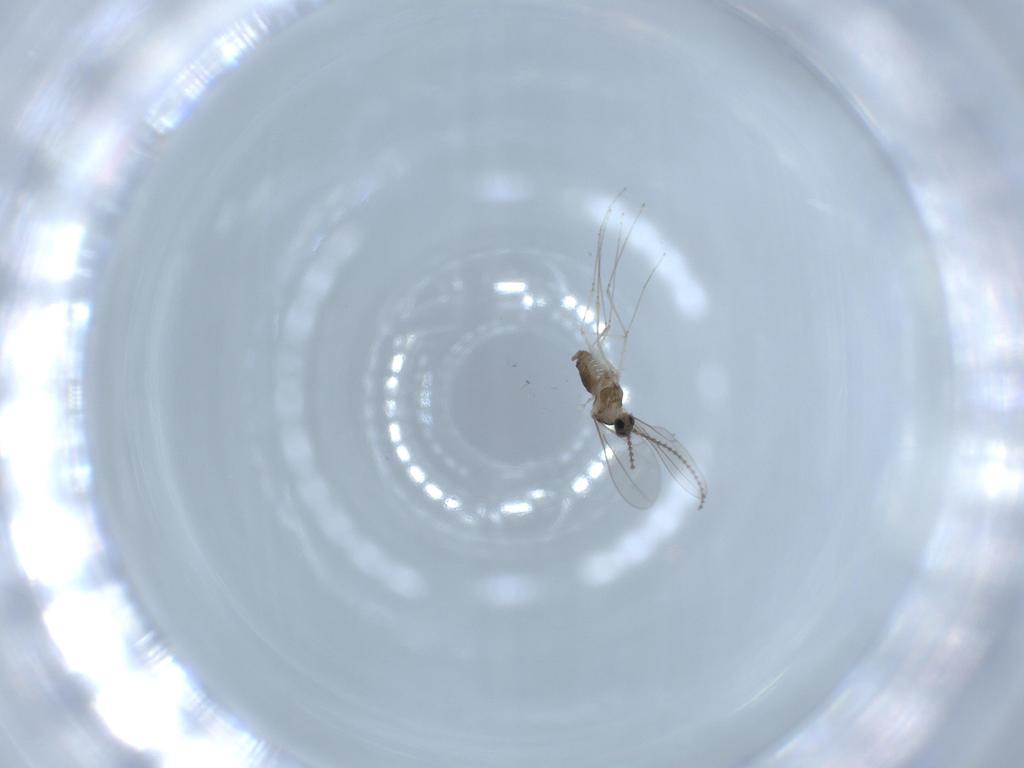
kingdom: Animalia
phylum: Arthropoda
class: Insecta
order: Diptera
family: Cecidomyiidae
